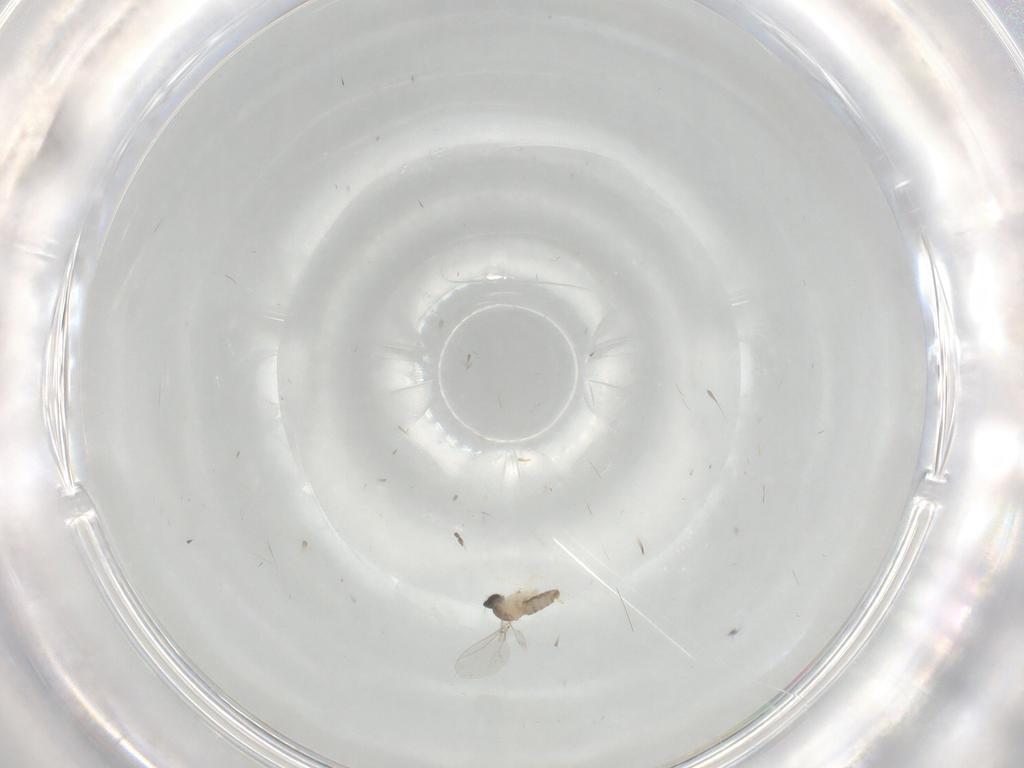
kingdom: Animalia
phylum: Arthropoda
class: Insecta
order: Diptera
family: Cecidomyiidae
